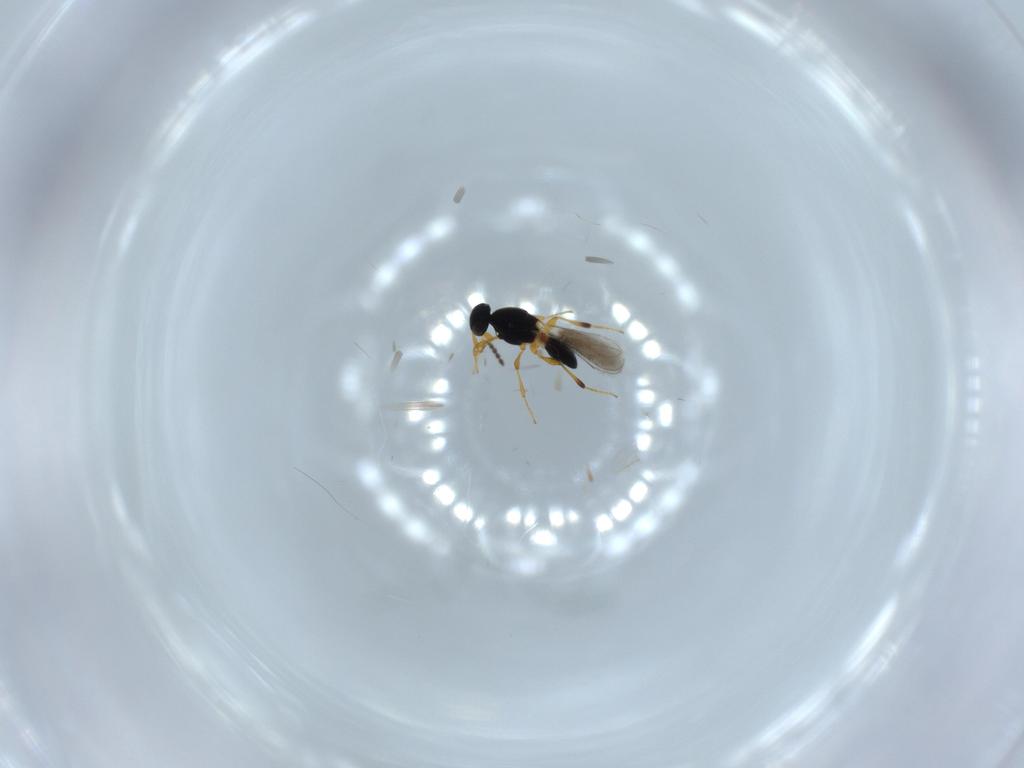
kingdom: Animalia
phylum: Arthropoda
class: Insecta
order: Hymenoptera
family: Platygastridae
